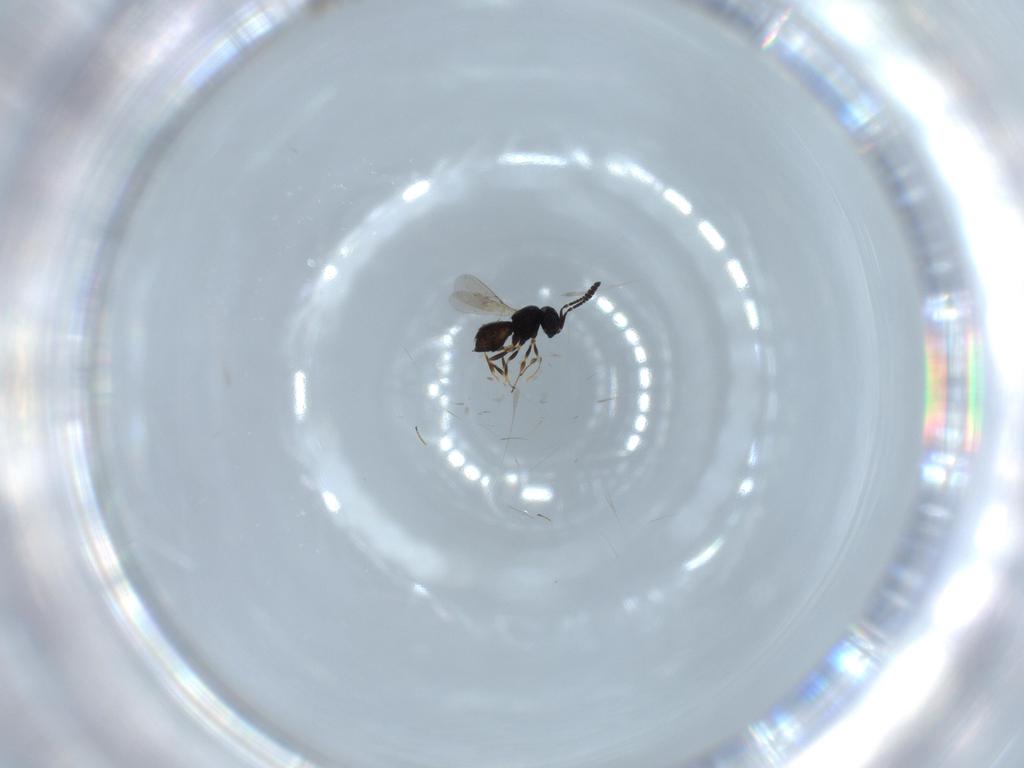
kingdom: Animalia
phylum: Arthropoda
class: Insecta
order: Hymenoptera
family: Scelionidae
